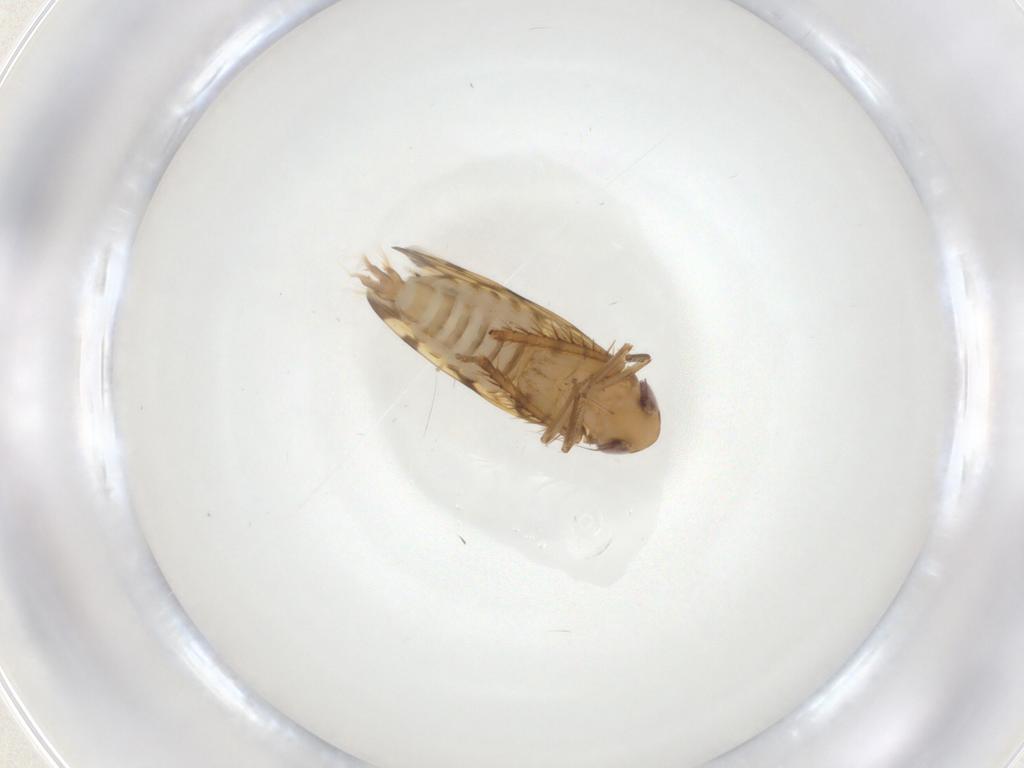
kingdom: Animalia
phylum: Arthropoda
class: Insecta
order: Hemiptera
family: Cicadellidae
